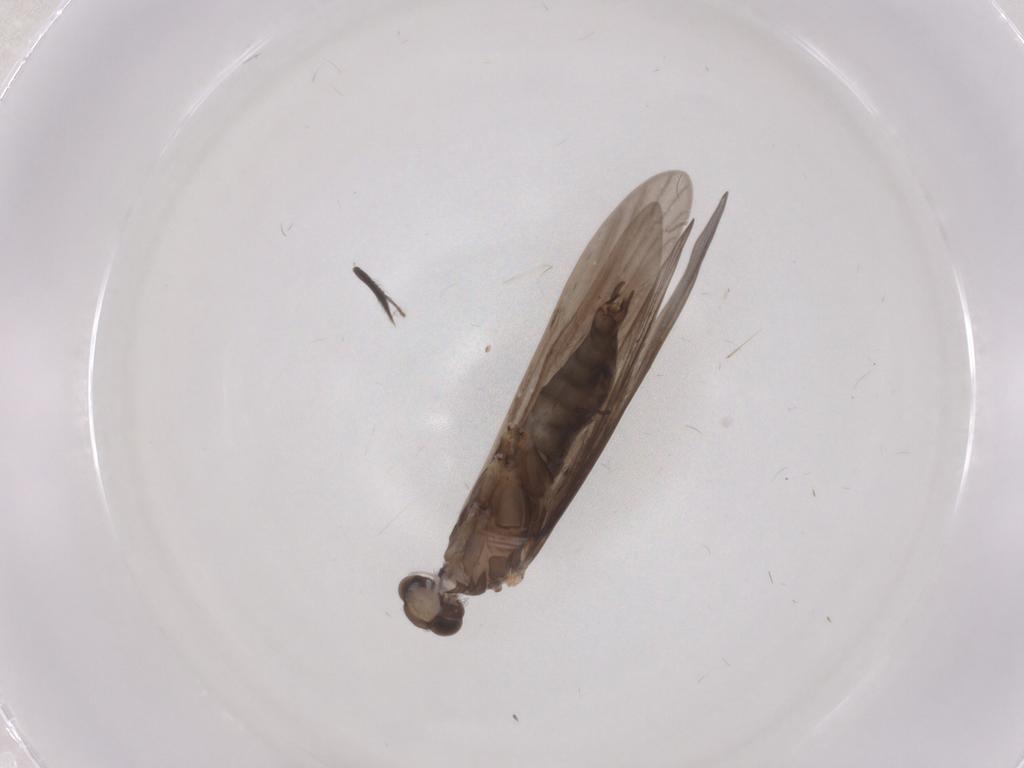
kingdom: Animalia
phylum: Arthropoda
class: Insecta
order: Trichoptera
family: Xiphocentronidae
